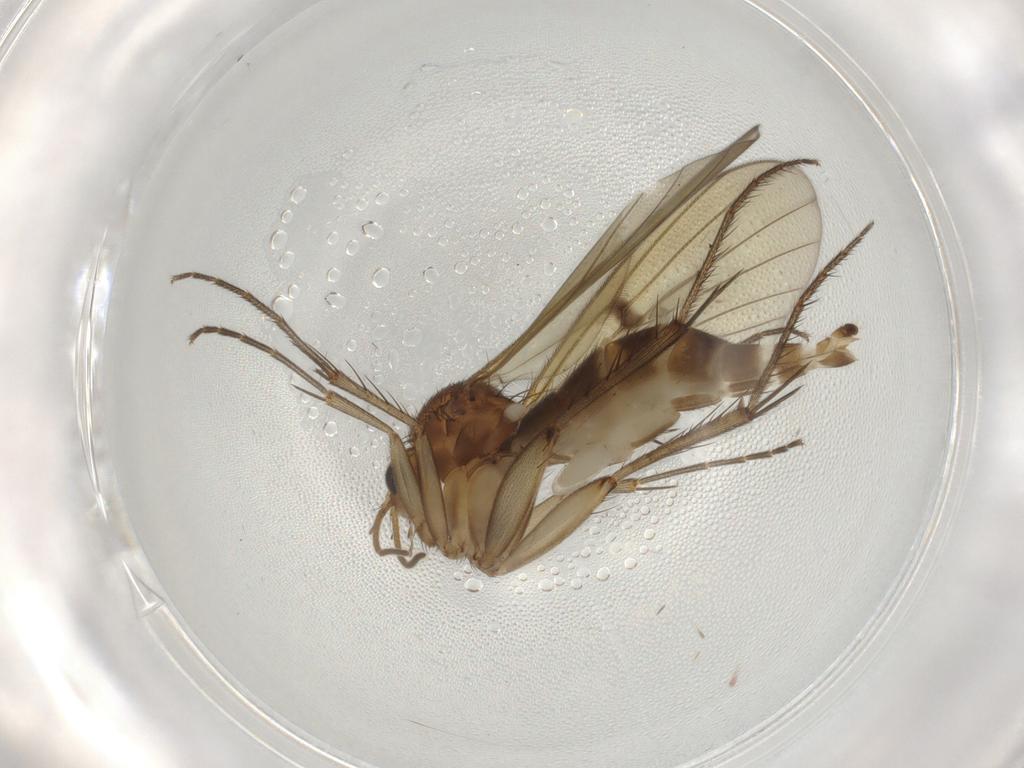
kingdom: Animalia
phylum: Arthropoda
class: Insecta
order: Diptera
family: Mycetophilidae
